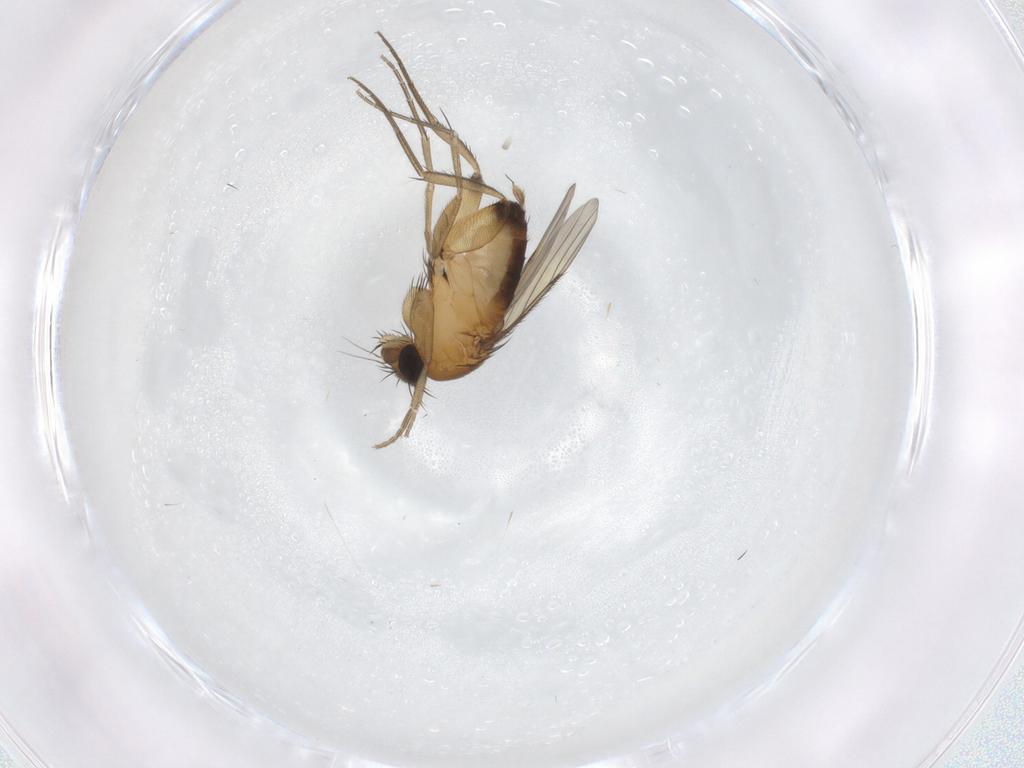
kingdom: Animalia
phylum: Arthropoda
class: Insecta
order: Diptera
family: Phoridae
